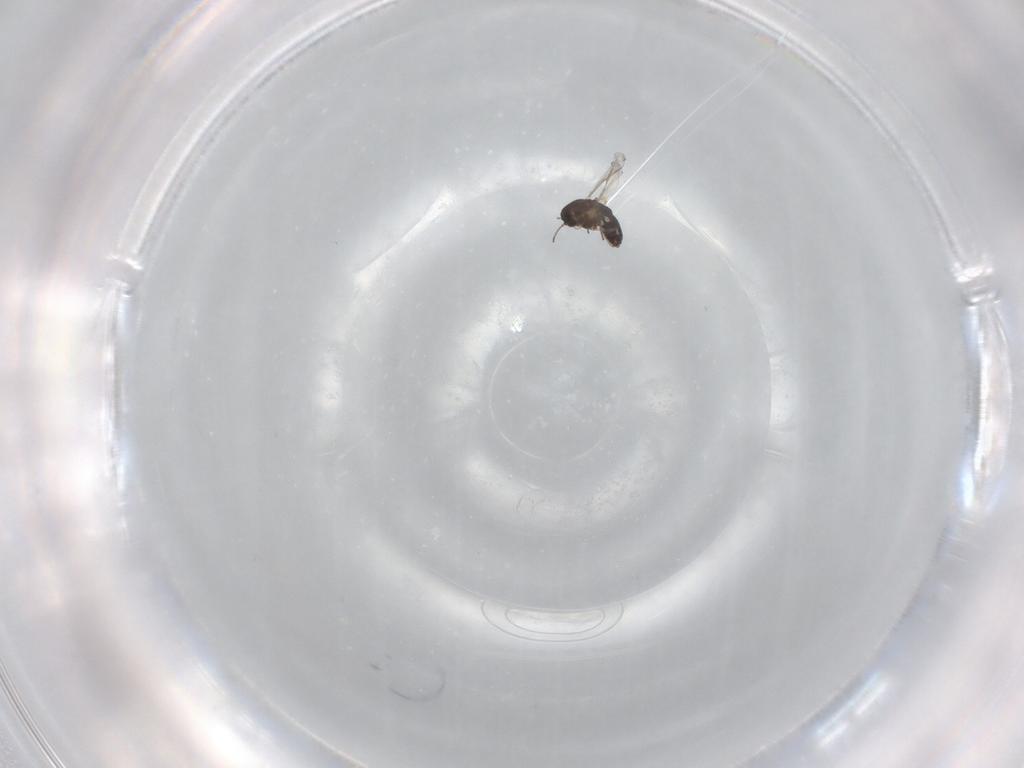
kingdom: Animalia
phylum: Arthropoda
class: Insecta
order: Diptera
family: Chironomidae
